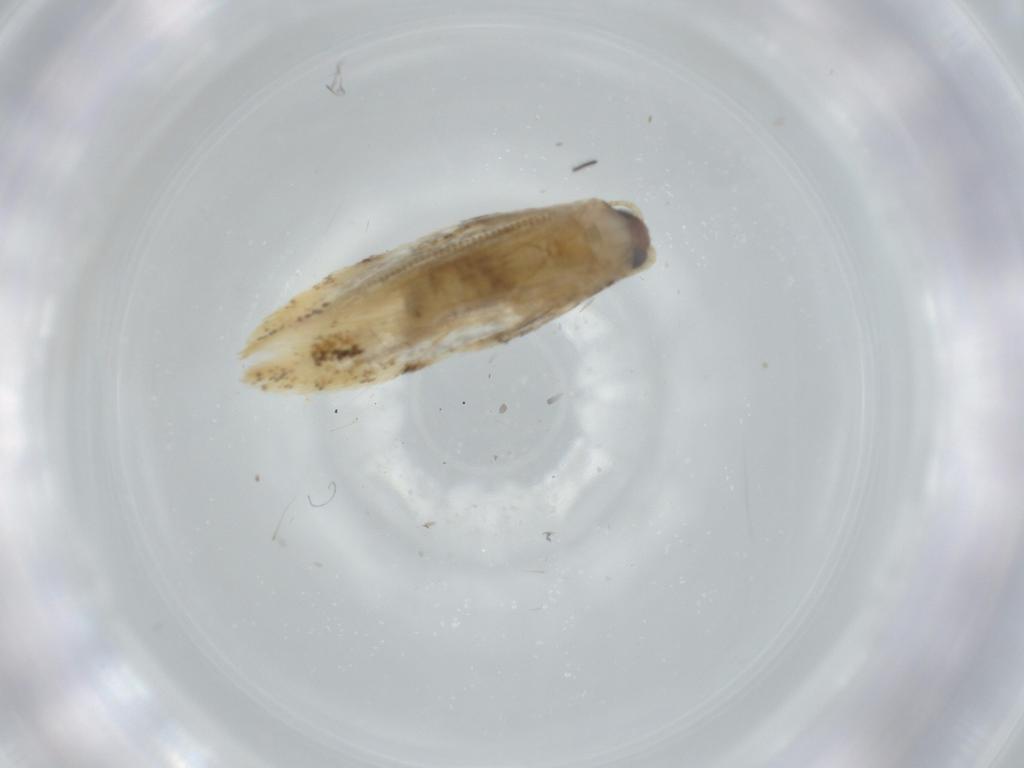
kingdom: Animalia
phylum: Arthropoda
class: Insecta
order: Lepidoptera
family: Tineidae
